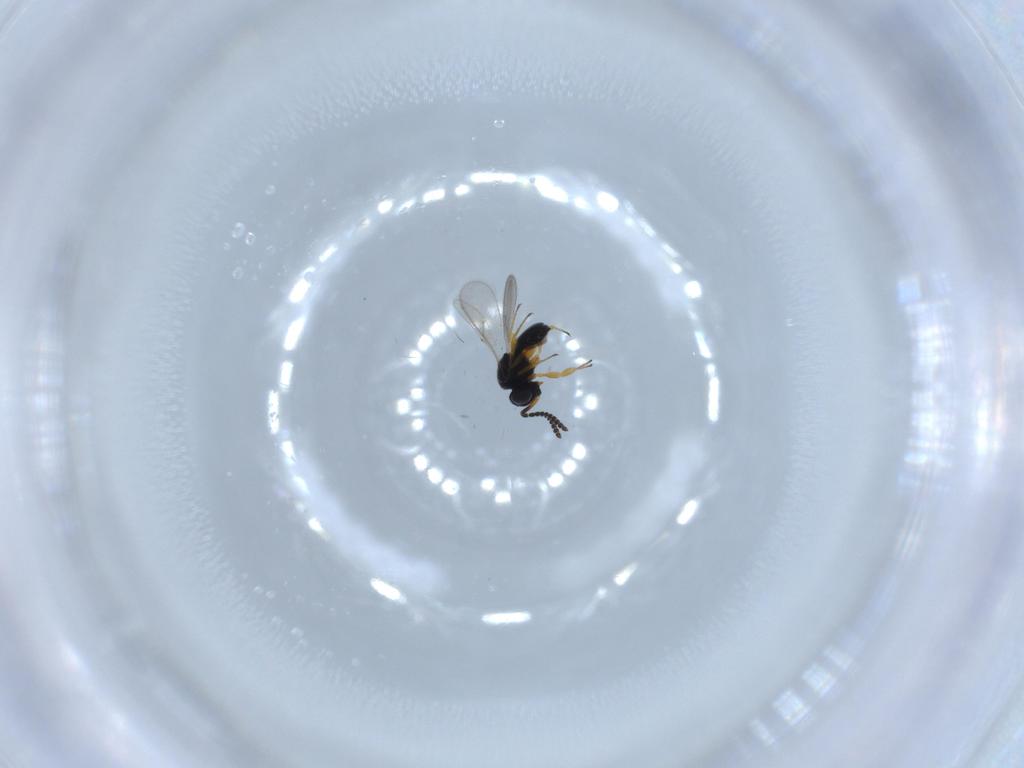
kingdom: Animalia
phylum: Arthropoda
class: Insecta
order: Hymenoptera
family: Scelionidae
